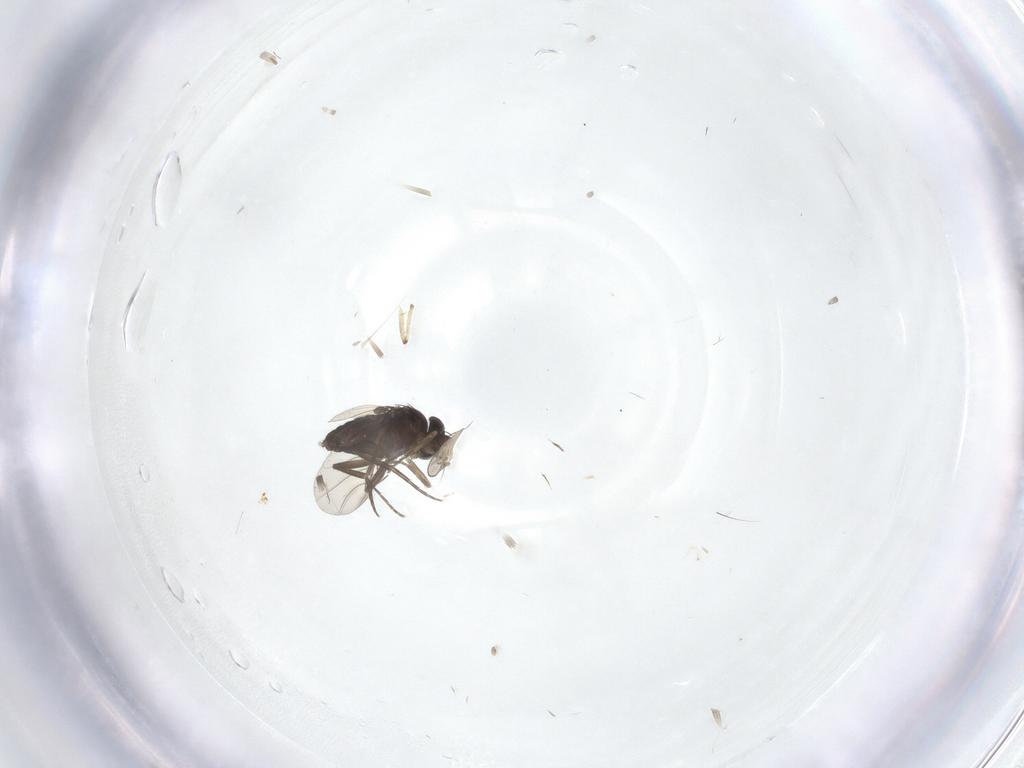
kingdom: Animalia
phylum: Arthropoda
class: Insecta
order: Diptera
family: Phoridae
